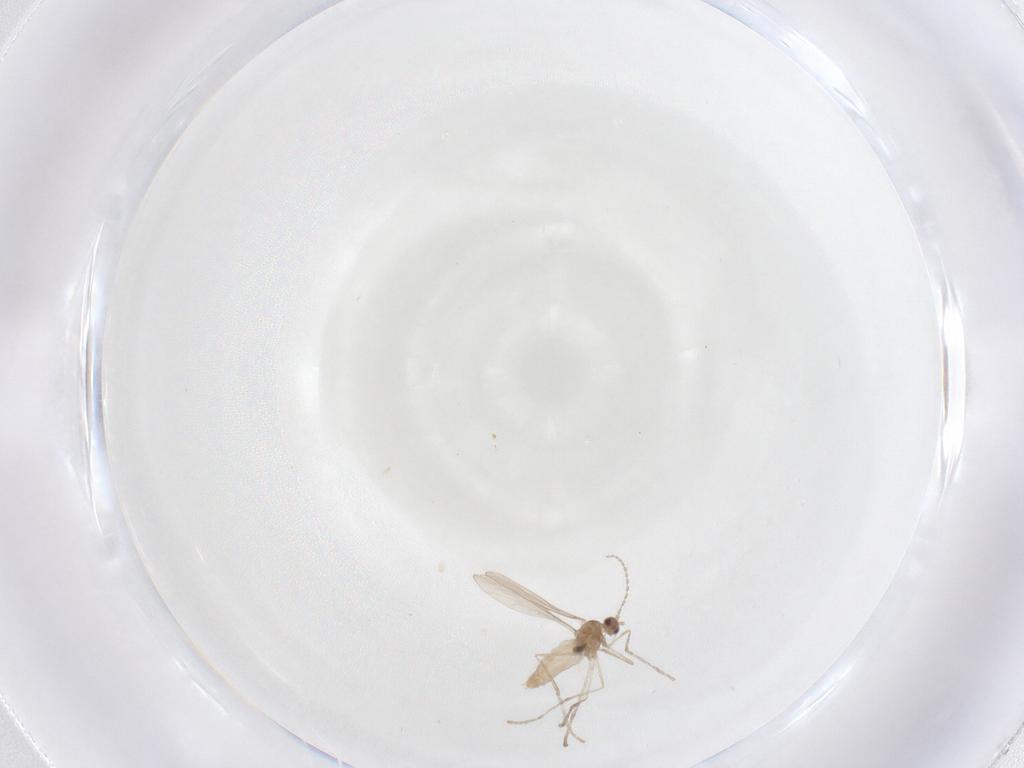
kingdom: Animalia
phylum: Arthropoda
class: Insecta
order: Diptera
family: Cecidomyiidae
